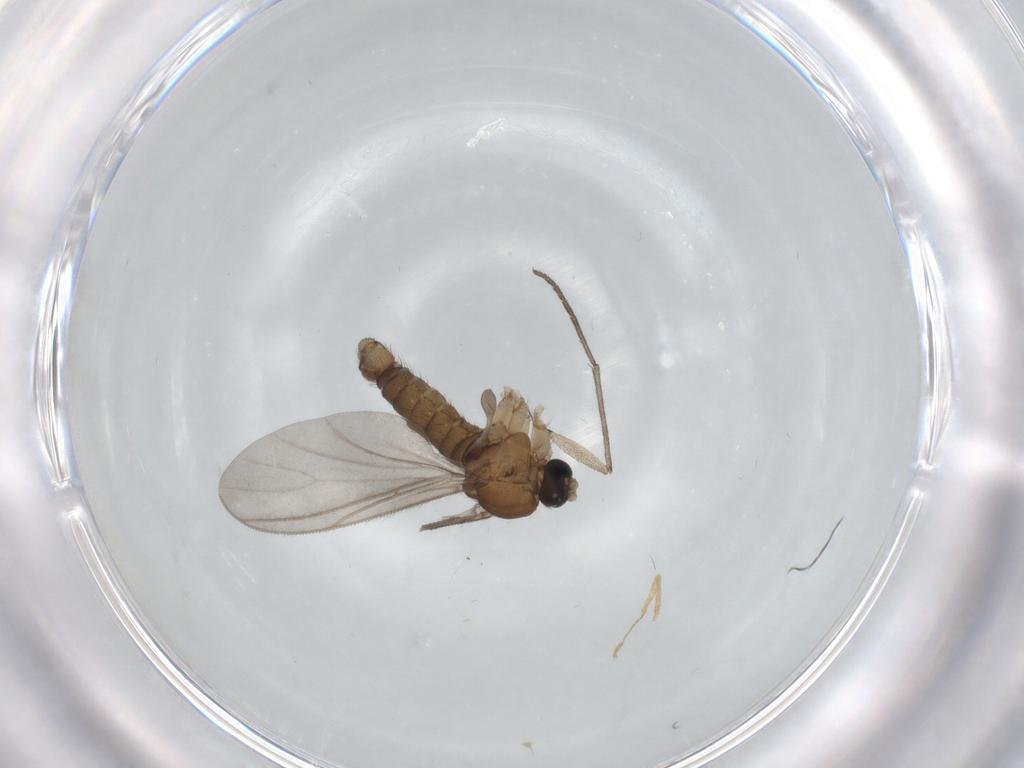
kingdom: Animalia
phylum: Arthropoda
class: Insecta
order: Diptera
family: Sciaridae
